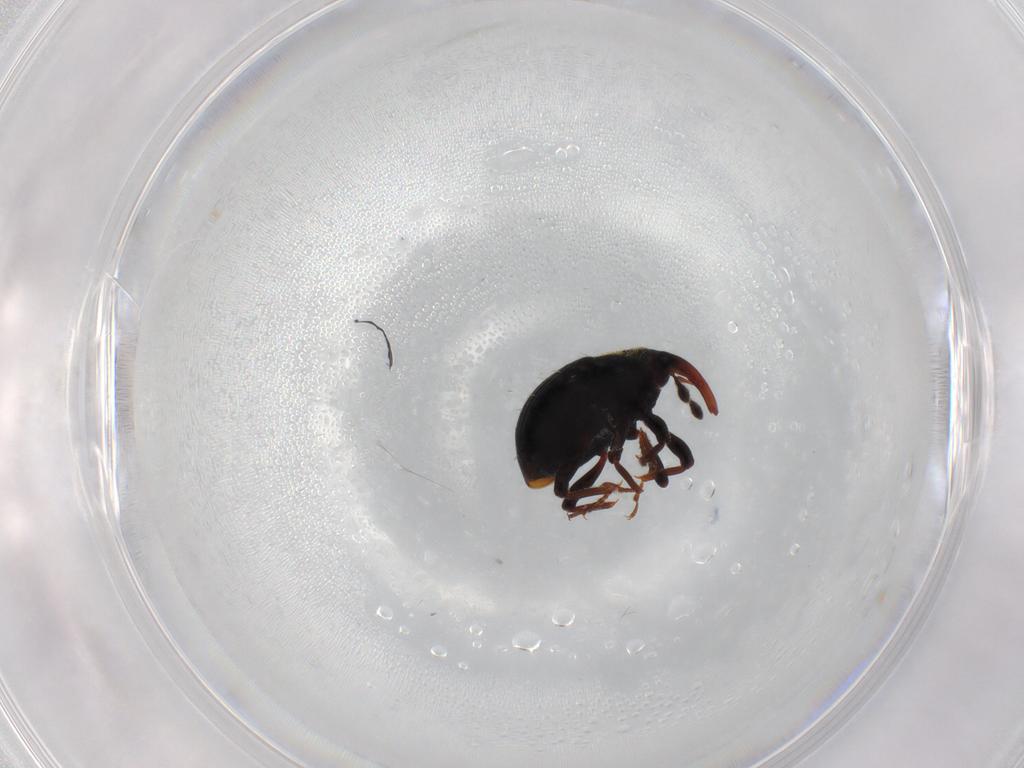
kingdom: Animalia
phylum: Arthropoda
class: Insecta
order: Coleoptera
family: Curculionidae
